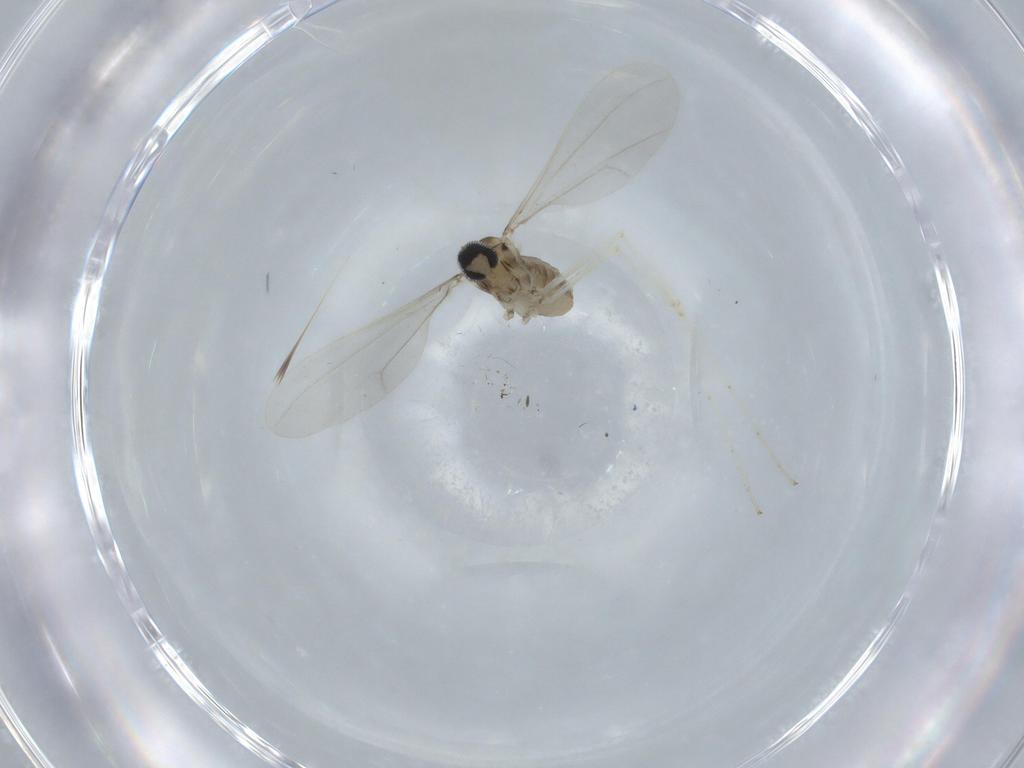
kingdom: Animalia
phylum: Arthropoda
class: Insecta
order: Diptera
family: Cecidomyiidae
